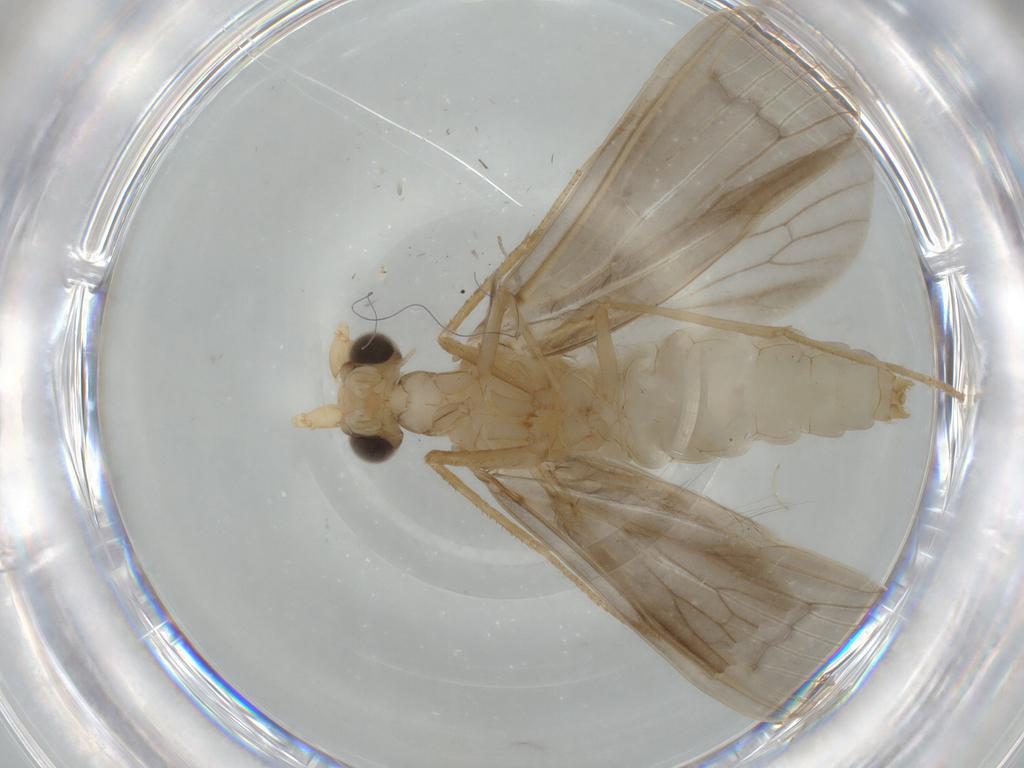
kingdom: Animalia
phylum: Arthropoda
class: Insecta
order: Trichoptera
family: Leptoceridae
